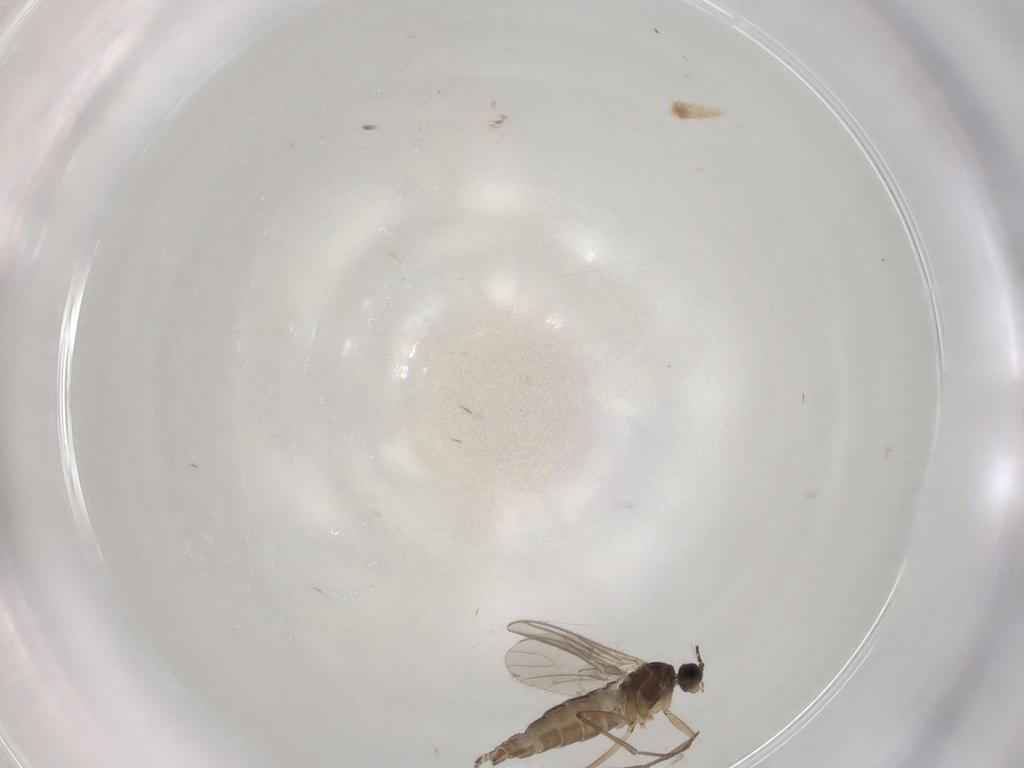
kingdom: Animalia
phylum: Arthropoda
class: Insecta
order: Diptera
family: Sciaridae
